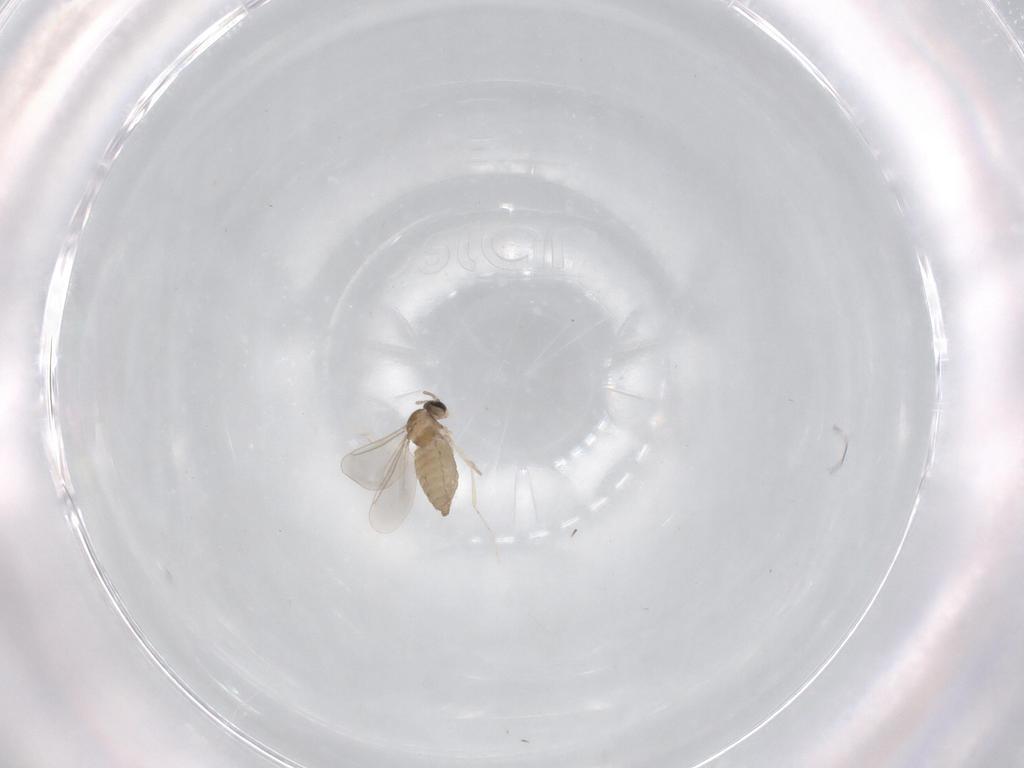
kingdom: Animalia
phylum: Arthropoda
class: Insecta
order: Diptera
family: Cecidomyiidae
